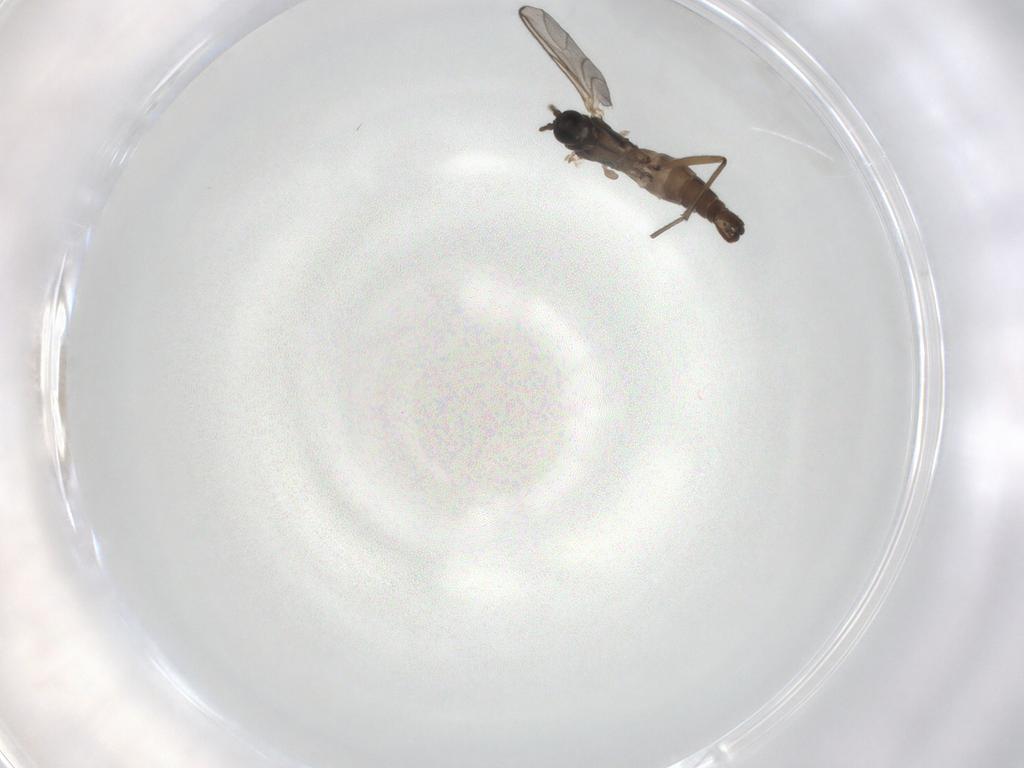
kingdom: Animalia
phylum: Arthropoda
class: Insecta
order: Diptera
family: Sciaridae
